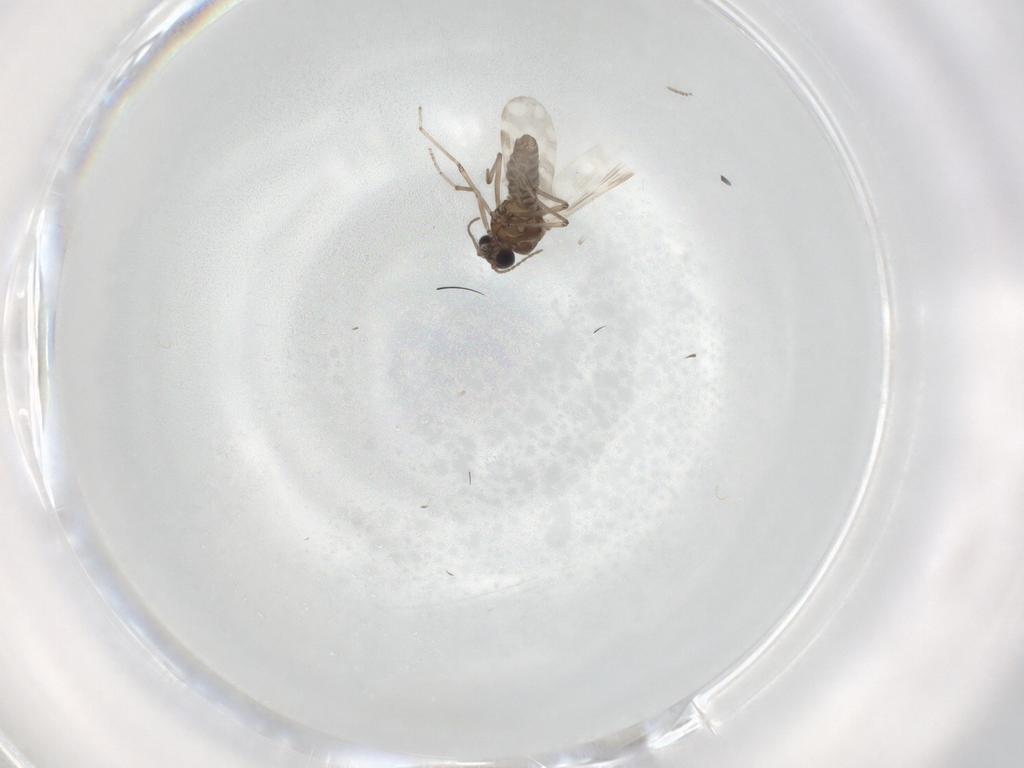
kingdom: Animalia
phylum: Arthropoda
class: Insecta
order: Diptera
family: Ceratopogonidae
